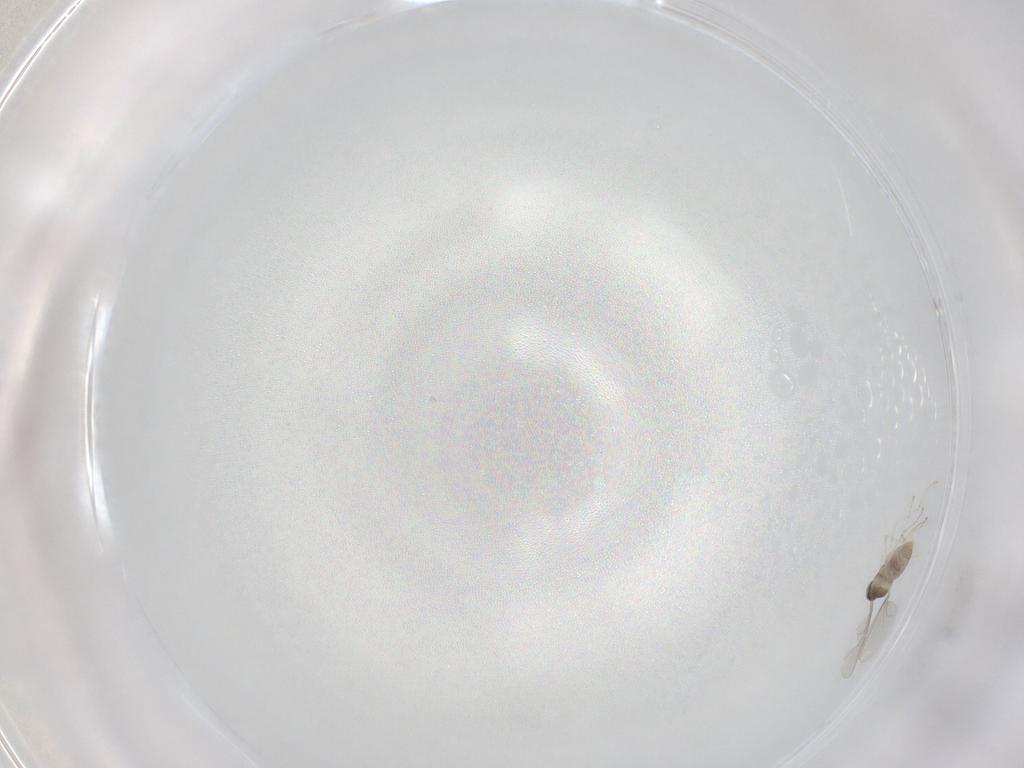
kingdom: Animalia
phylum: Arthropoda
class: Insecta
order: Diptera
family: Cecidomyiidae
